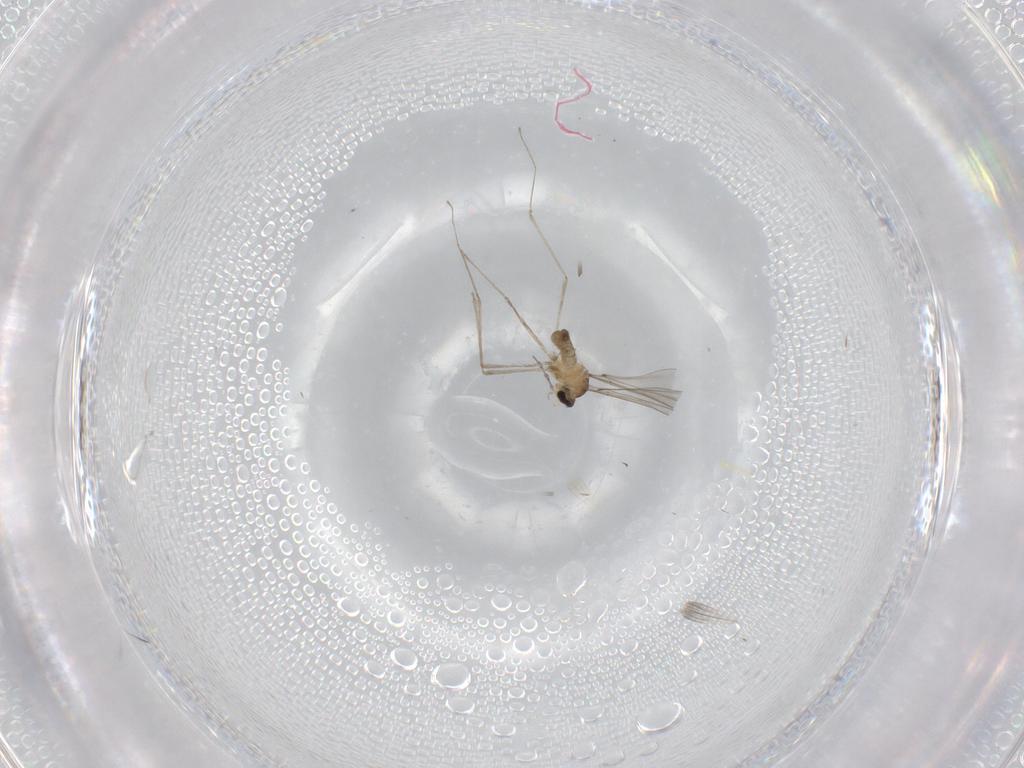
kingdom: Animalia
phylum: Arthropoda
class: Insecta
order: Diptera
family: Cecidomyiidae
